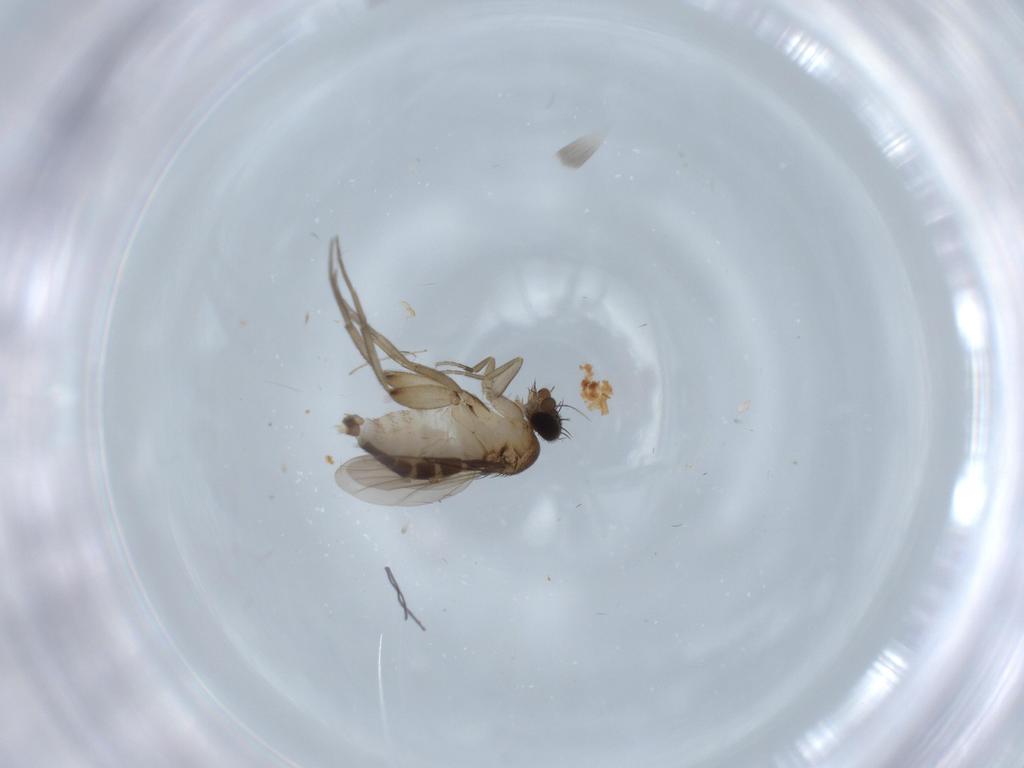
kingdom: Animalia
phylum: Arthropoda
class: Insecta
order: Diptera
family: Phoridae
